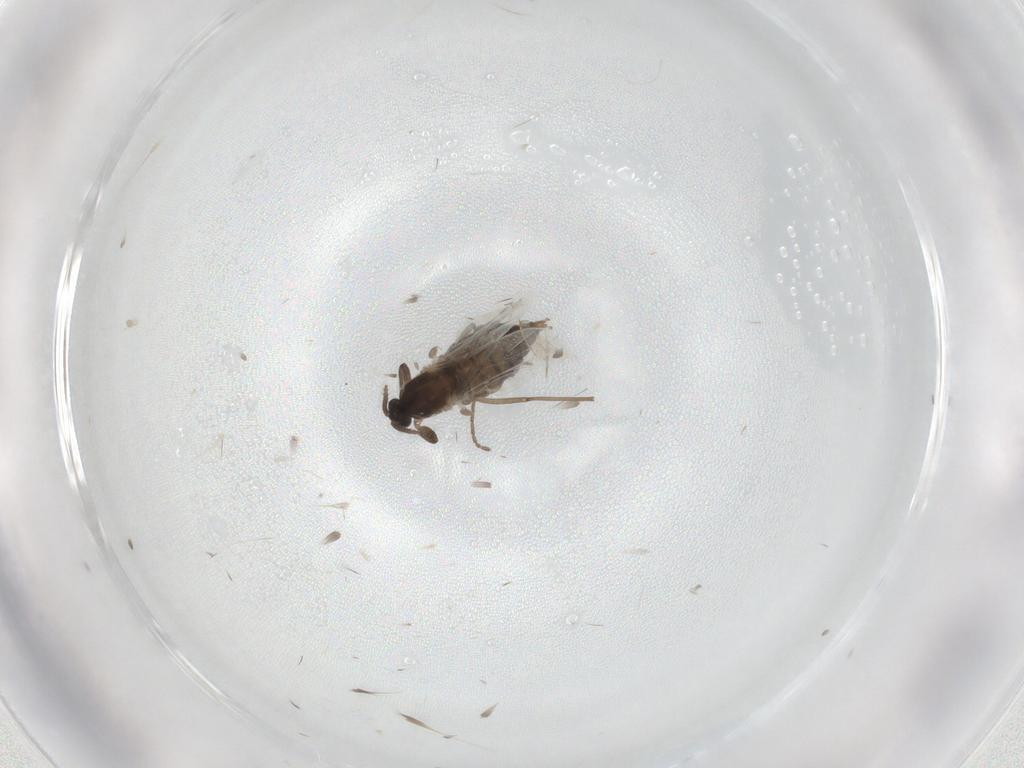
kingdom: Animalia
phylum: Arthropoda
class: Insecta
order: Diptera
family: Cecidomyiidae
